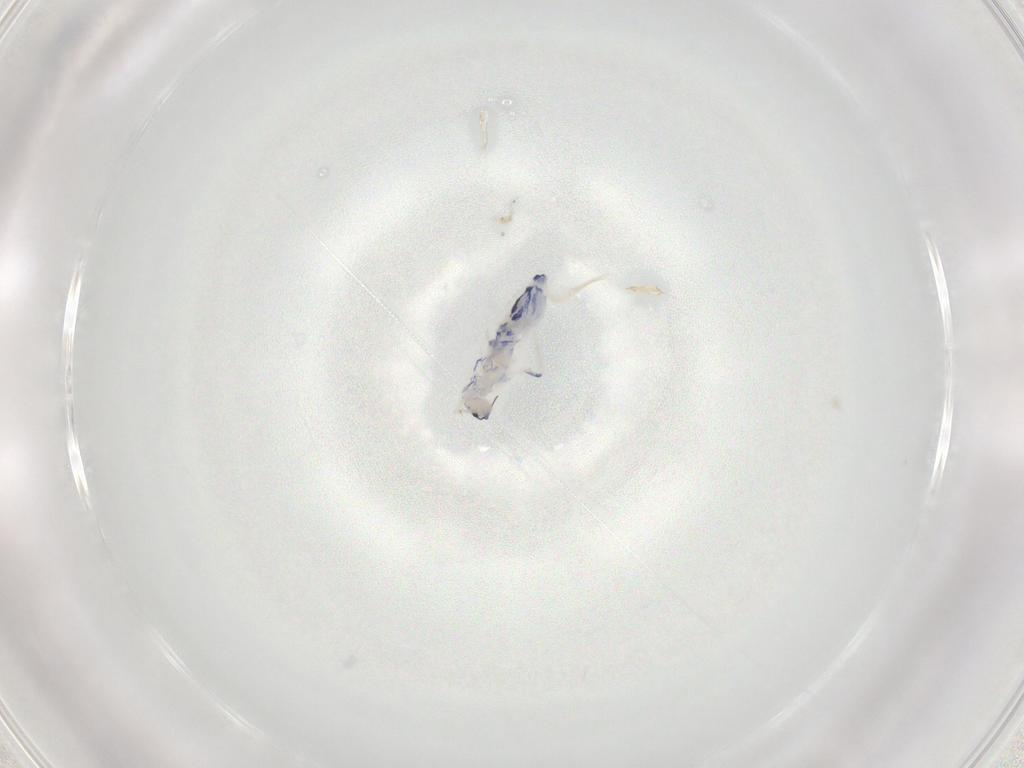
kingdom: Animalia
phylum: Arthropoda
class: Collembola
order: Entomobryomorpha
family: Entomobryidae
